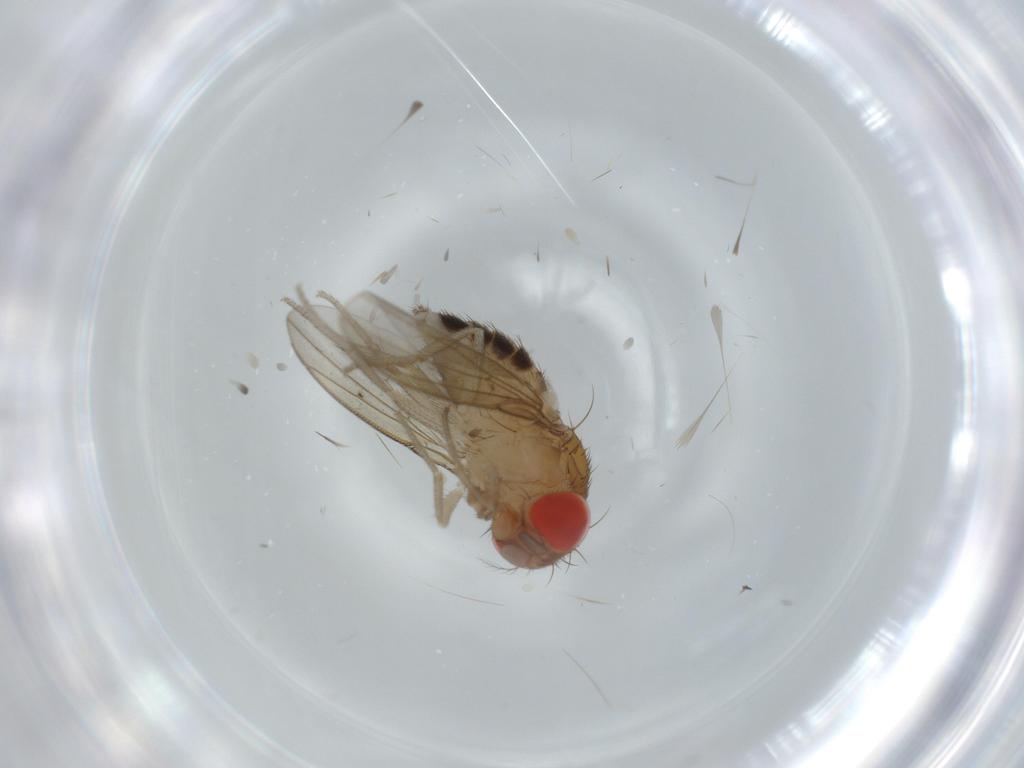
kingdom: Animalia
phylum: Arthropoda
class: Insecta
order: Diptera
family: Drosophilidae
